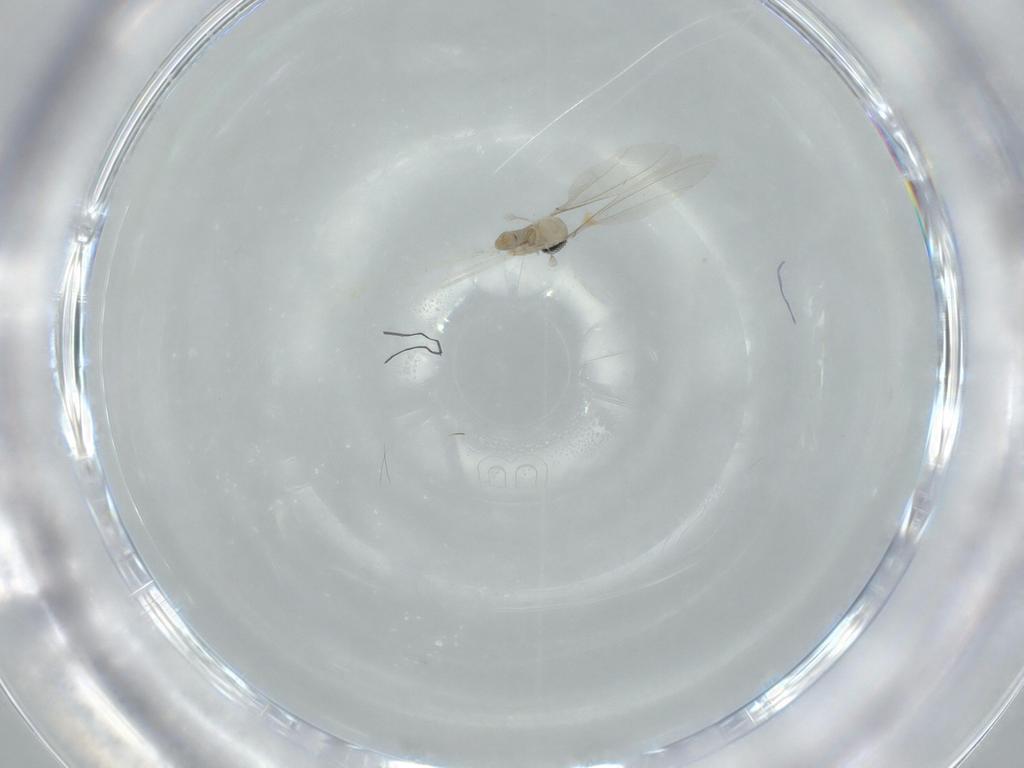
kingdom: Animalia
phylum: Arthropoda
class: Insecta
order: Diptera
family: Cecidomyiidae
